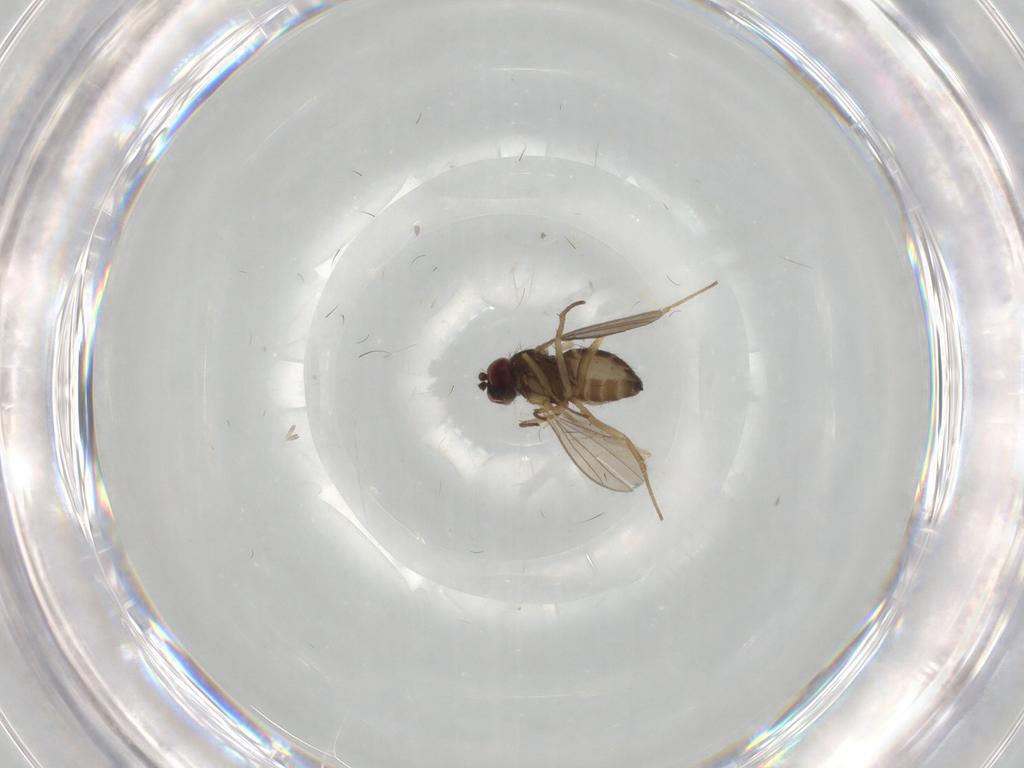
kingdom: Animalia
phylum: Arthropoda
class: Insecta
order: Diptera
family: Dolichopodidae
